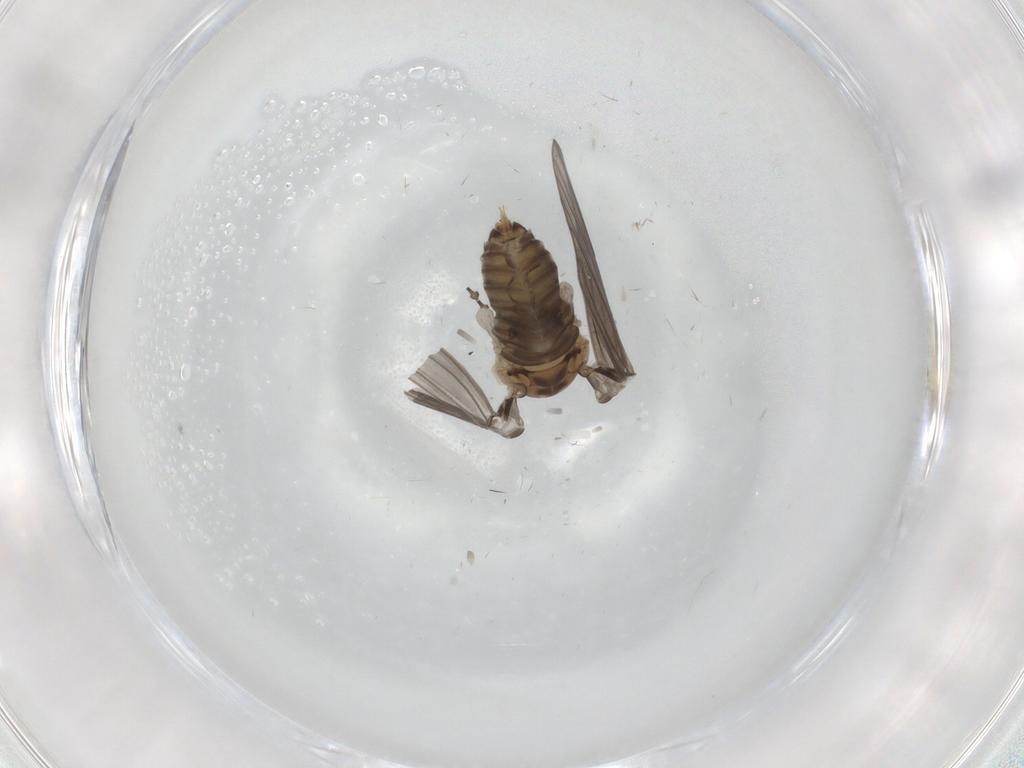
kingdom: Animalia
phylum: Arthropoda
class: Insecta
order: Diptera
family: Psychodidae
